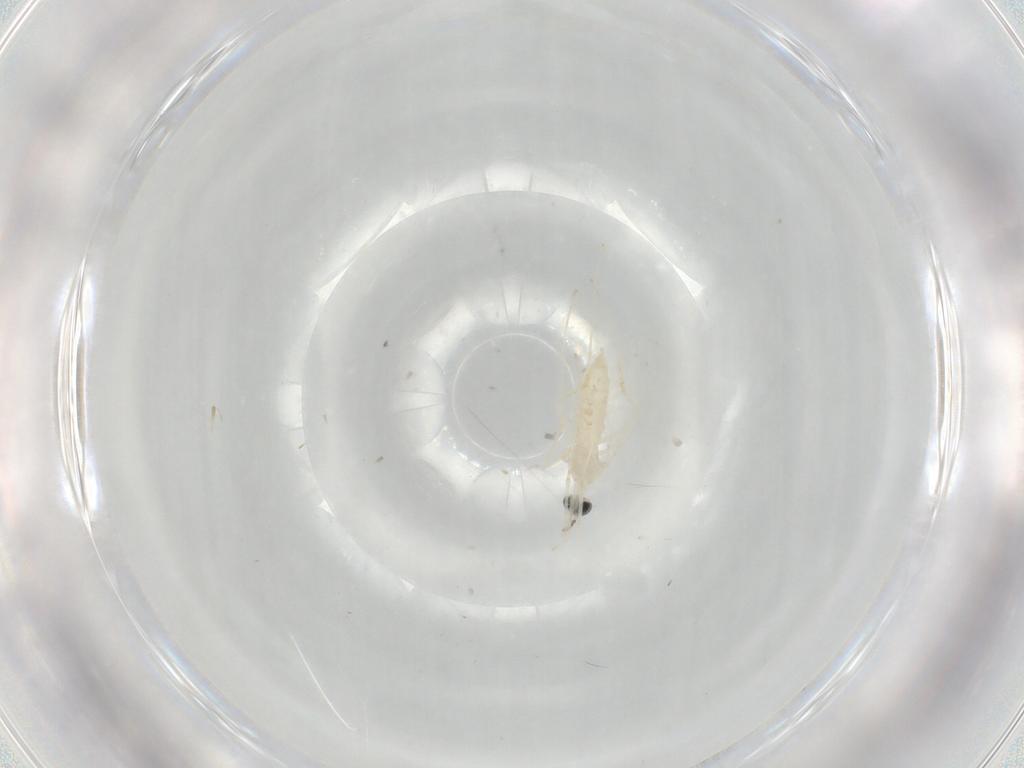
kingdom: Animalia
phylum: Arthropoda
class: Insecta
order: Diptera
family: Cecidomyiidae
